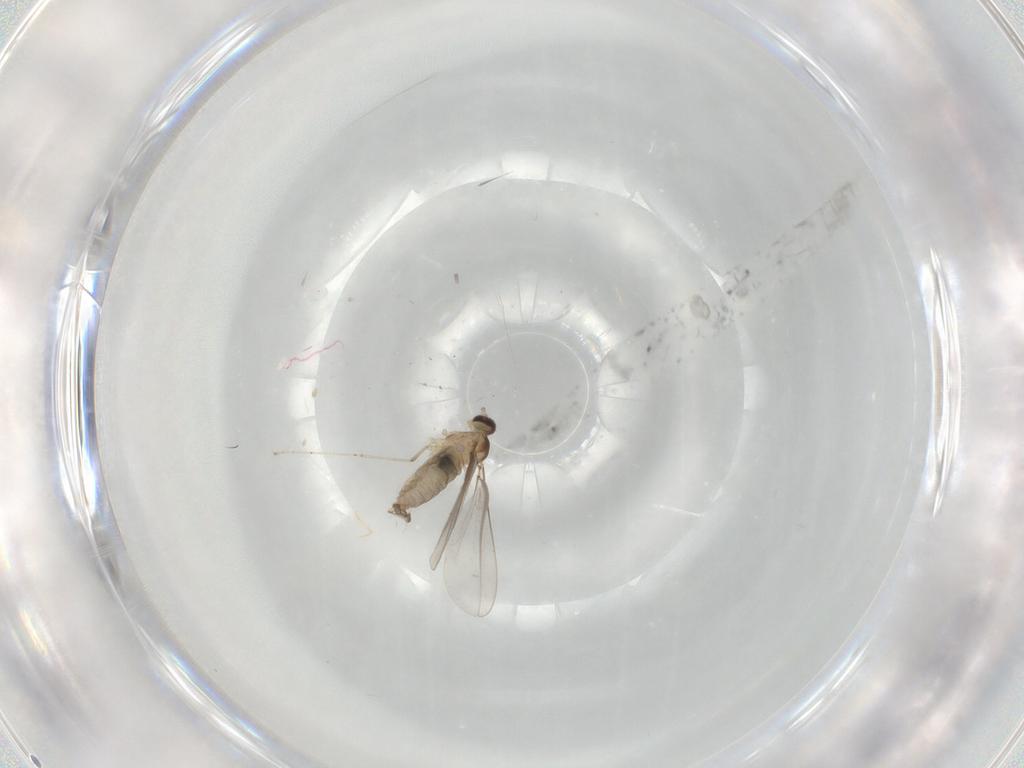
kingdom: Animalia
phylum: Arthropoda
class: Insecta
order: Diptera
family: Cecidomyiidae
